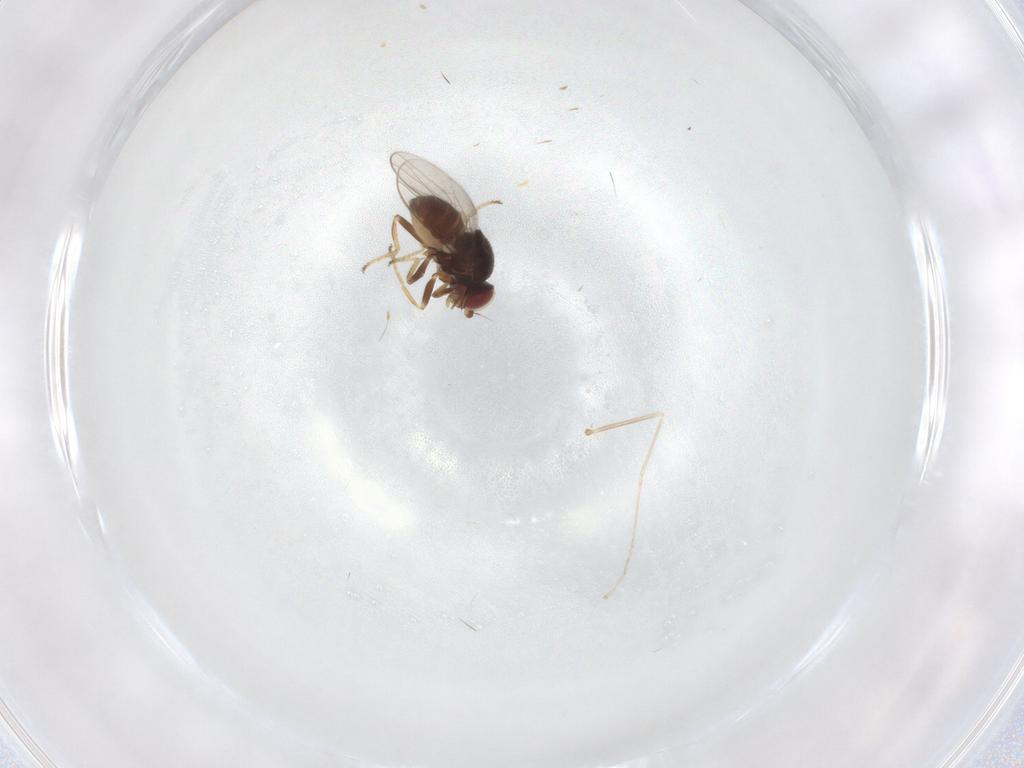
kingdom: Animalia
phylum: Arthropoda
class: Insecta
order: Diptera
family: Chloropidae
